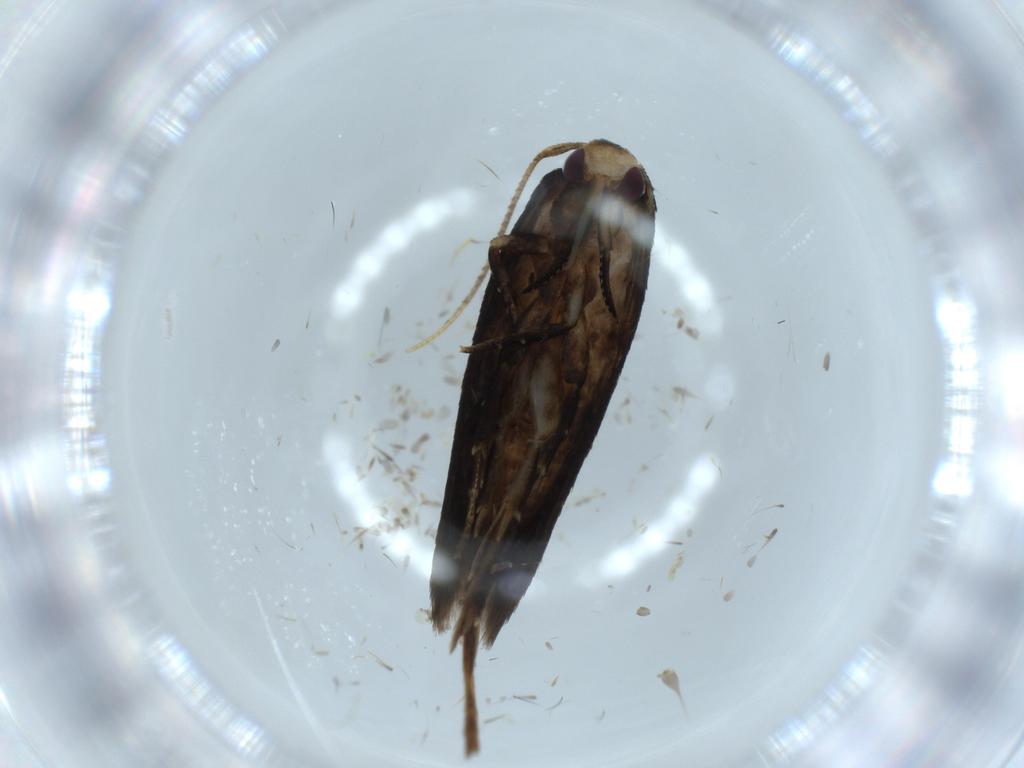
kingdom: Animalia
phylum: Arthropoda
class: Insecta
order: Lepidoptera
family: Gracillariidae
